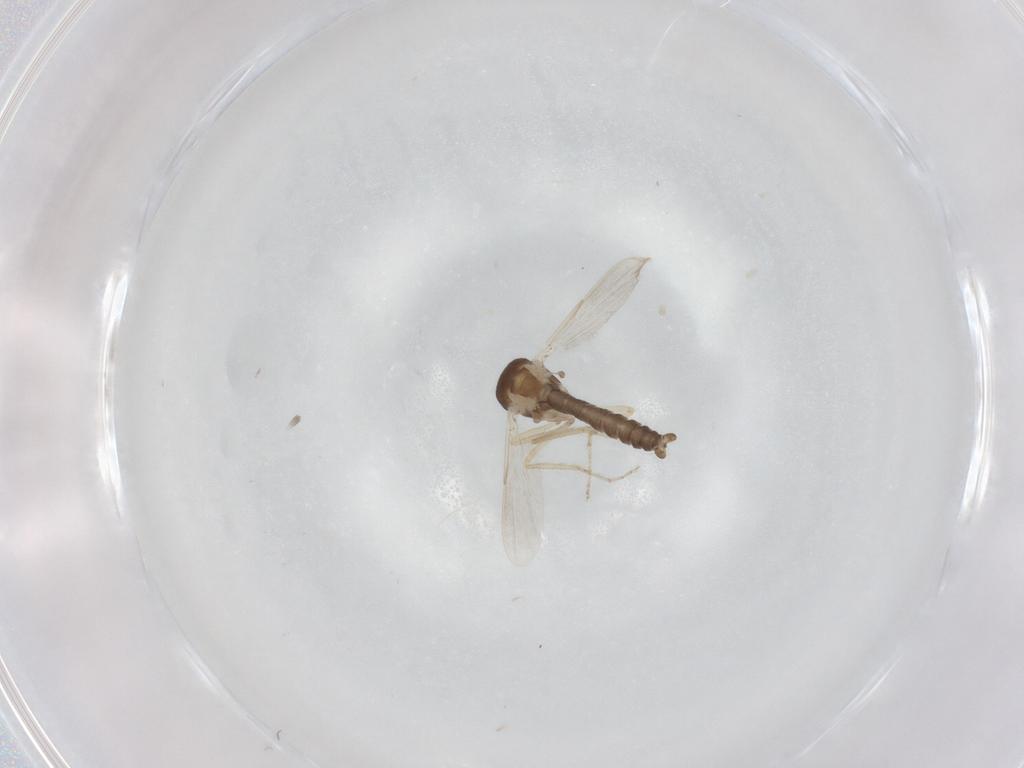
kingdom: Animalia
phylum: Arthropoda
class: Insecta
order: Diptera
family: Ceratopogonidae
